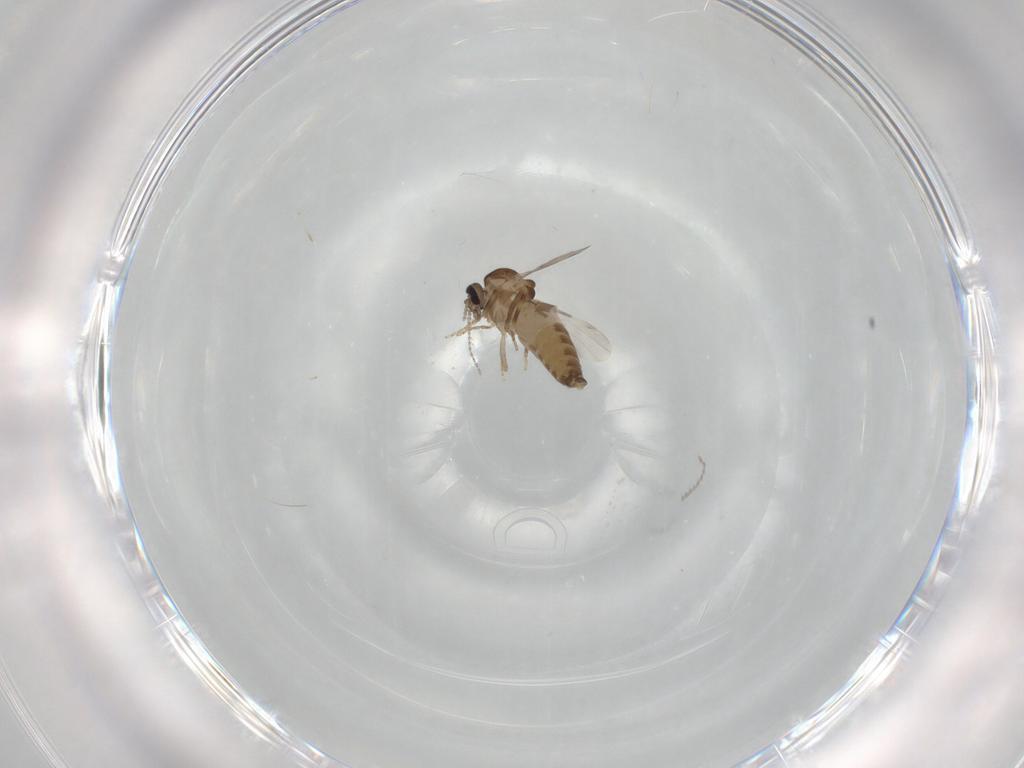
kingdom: Animalia
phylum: Arthropoda
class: Insecta
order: Diptera
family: Ceratopogonidae
